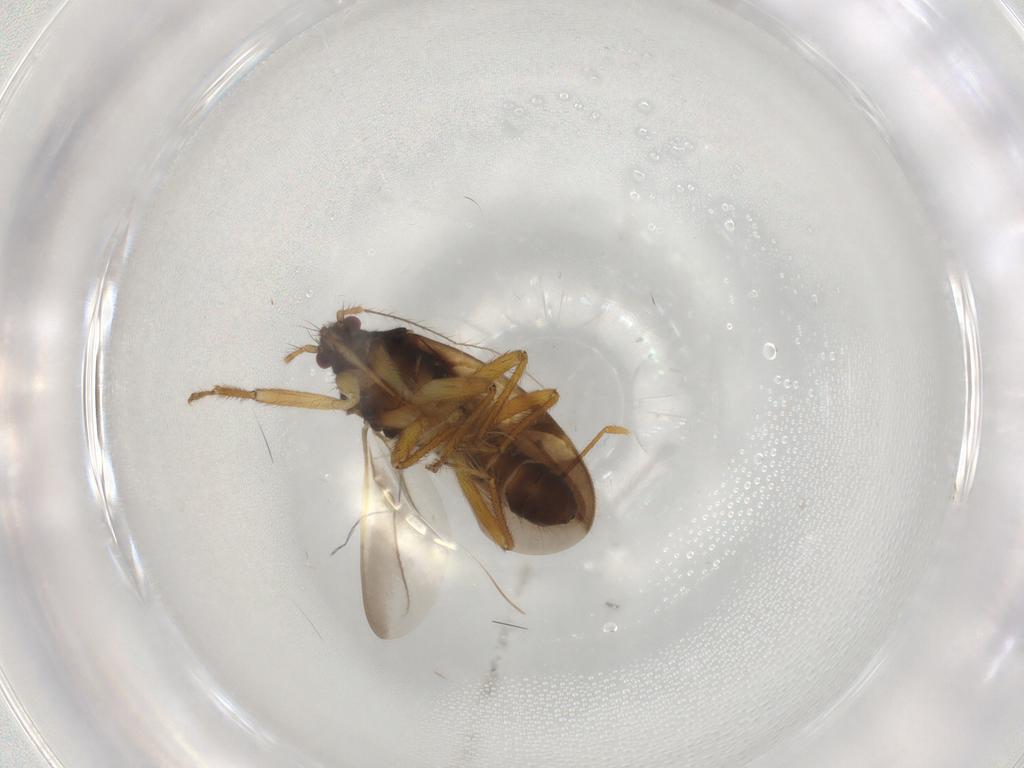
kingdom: Animalia
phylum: Arthropoda
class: Insecta
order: Hemiptera
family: Miridae
